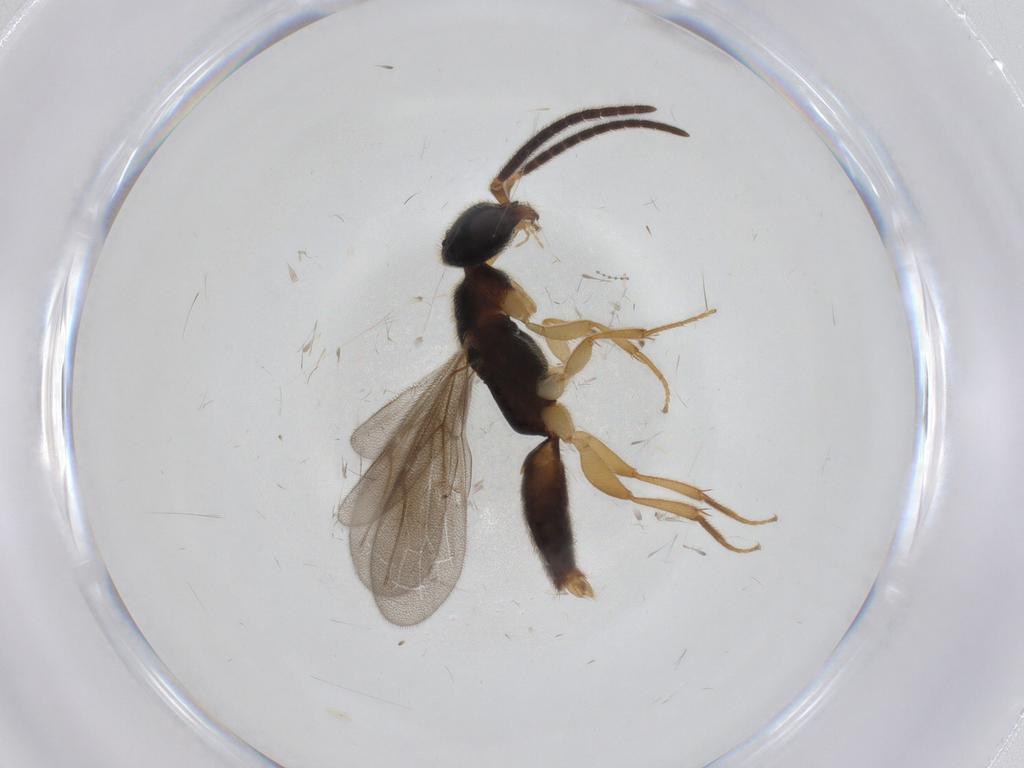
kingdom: Animalia
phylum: Arthropoda
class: Insecta
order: Hymenoptera
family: Bethylidae
